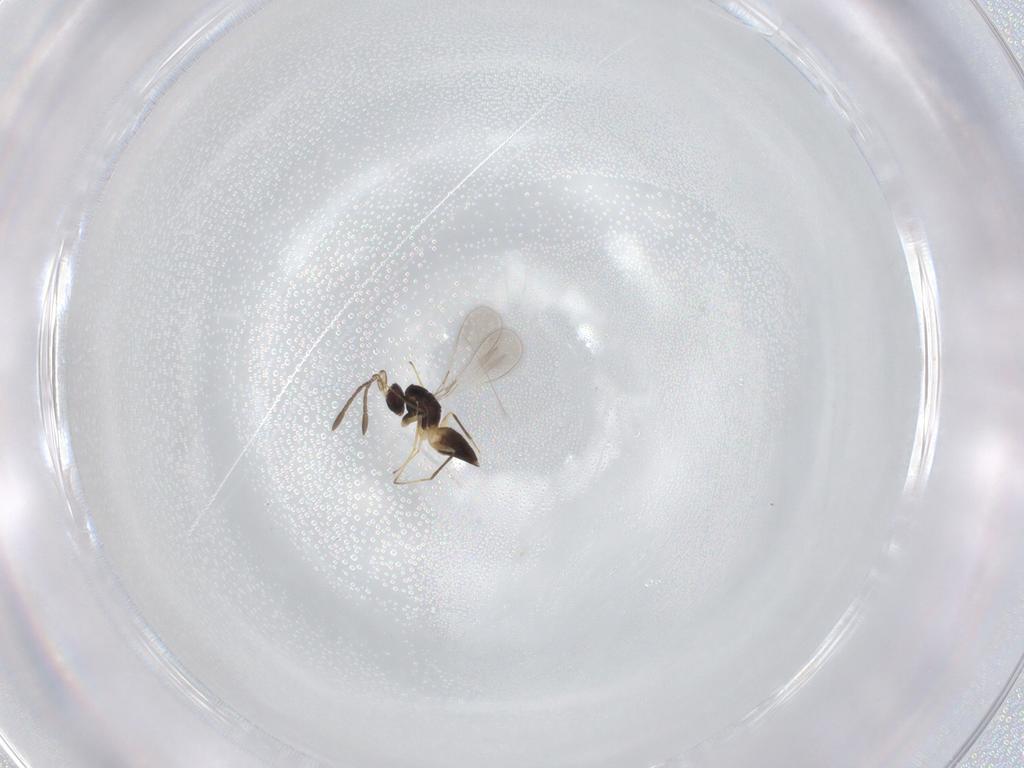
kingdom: Animalia
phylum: Arthropoda
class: Insecta
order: Hymenoptera
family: Mymaridae
